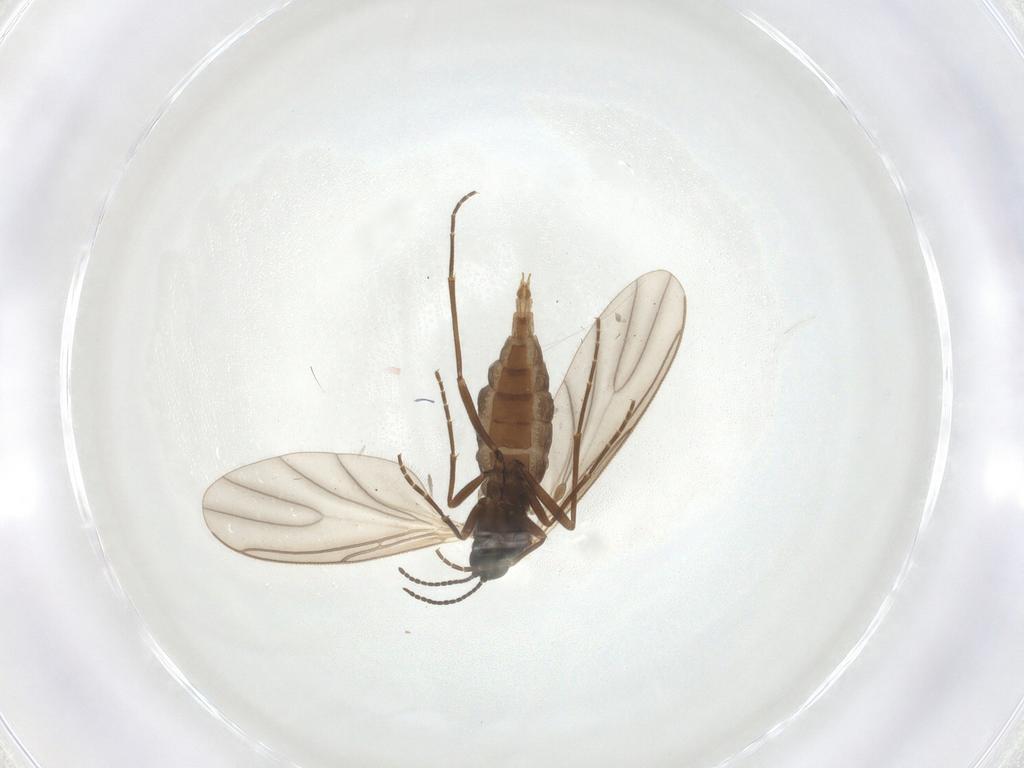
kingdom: Animalia
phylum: Arthropoda
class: Insecta
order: Diptera
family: Sciaridae
